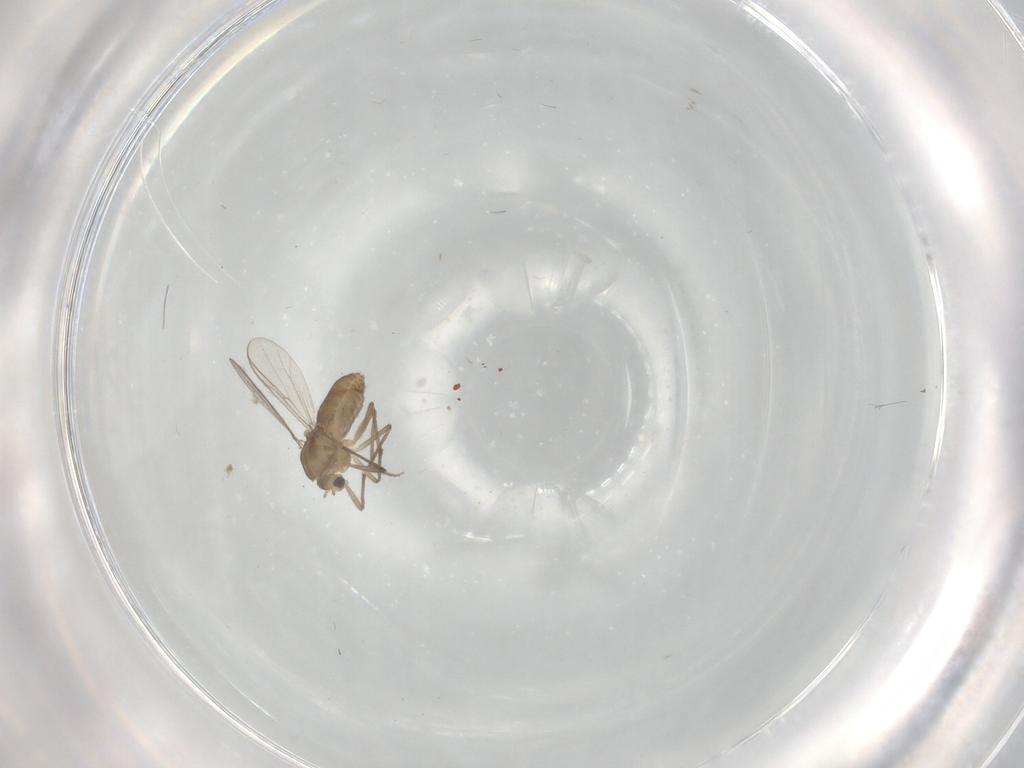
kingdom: Animalia
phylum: Arthropoda
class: Insecta
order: Diptera
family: Chironomidae
